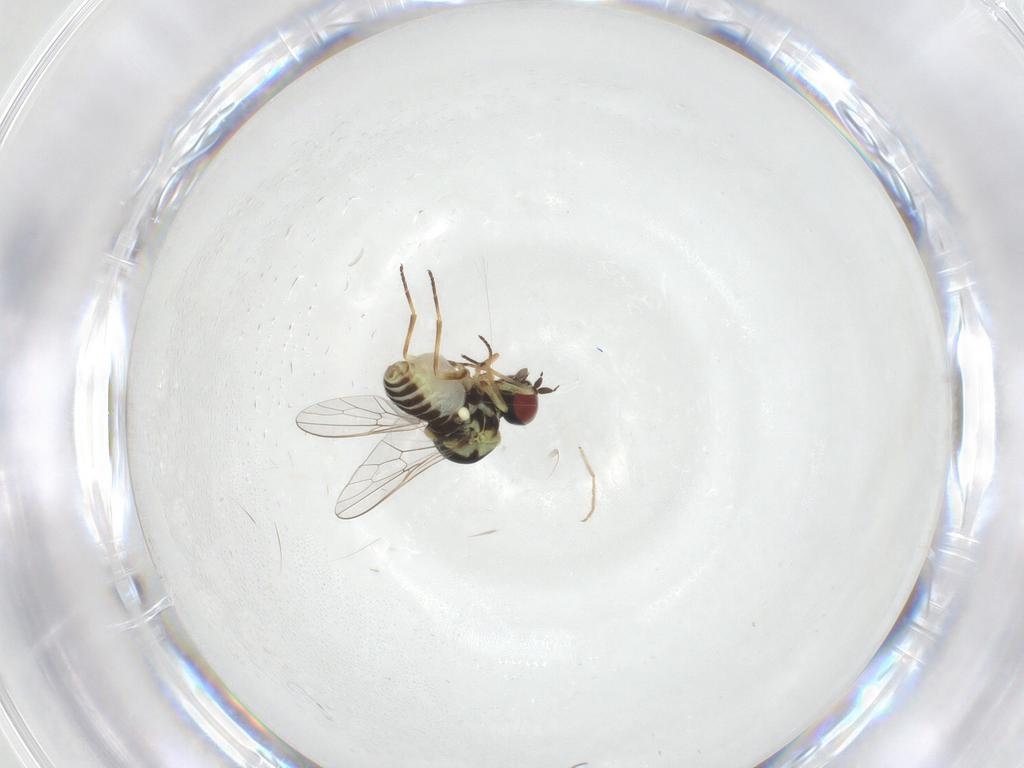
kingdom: Animalia
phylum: Arthropoda
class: Insecta
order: Diptera
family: Bombyliidae
